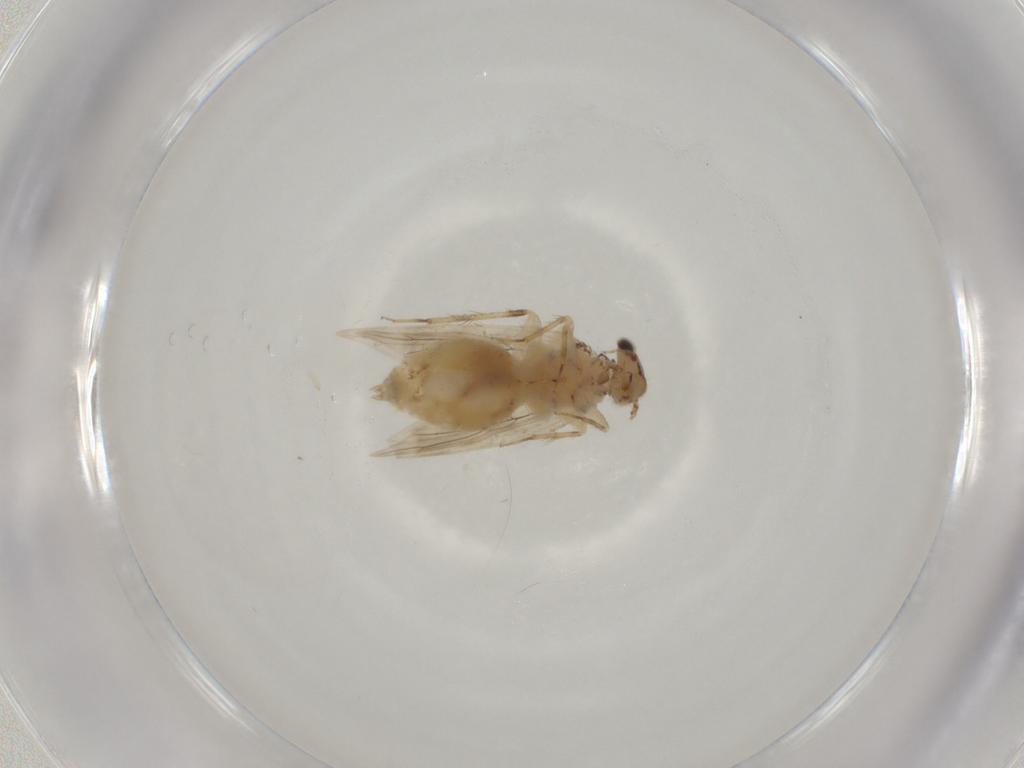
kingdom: Animalia
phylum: Arthropoda
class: Insecta
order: Psocodea
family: Lepidopsocidae
